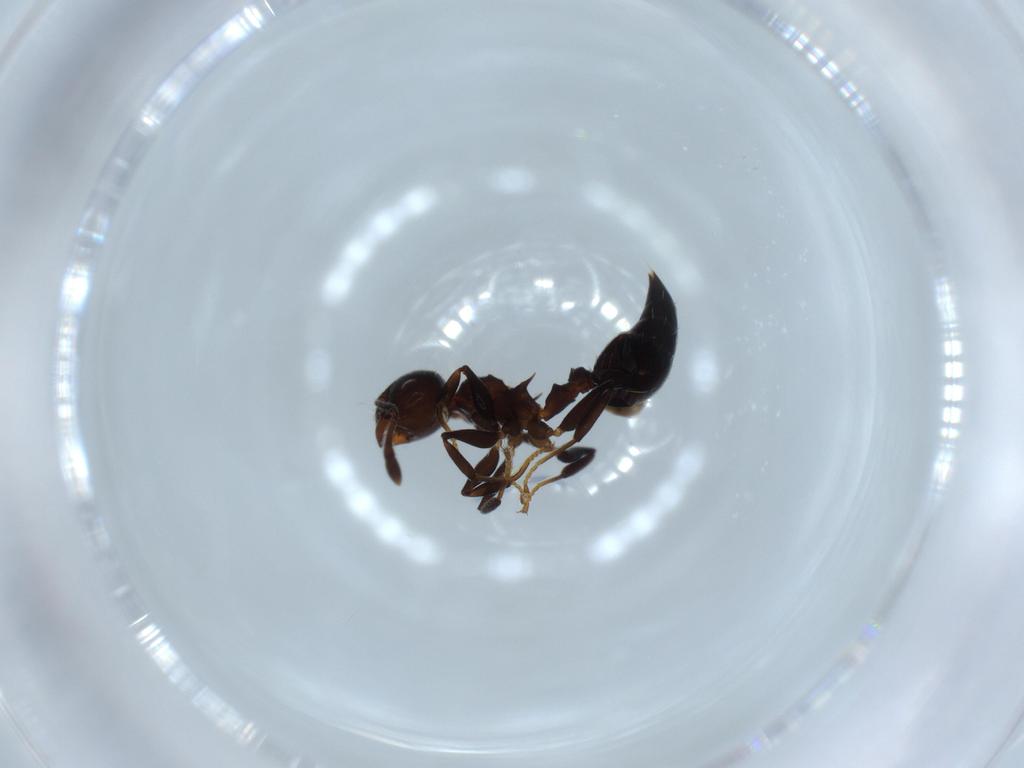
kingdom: Animalia
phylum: Arthropoda
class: Insecta
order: Hymenoptera
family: Formicidae
